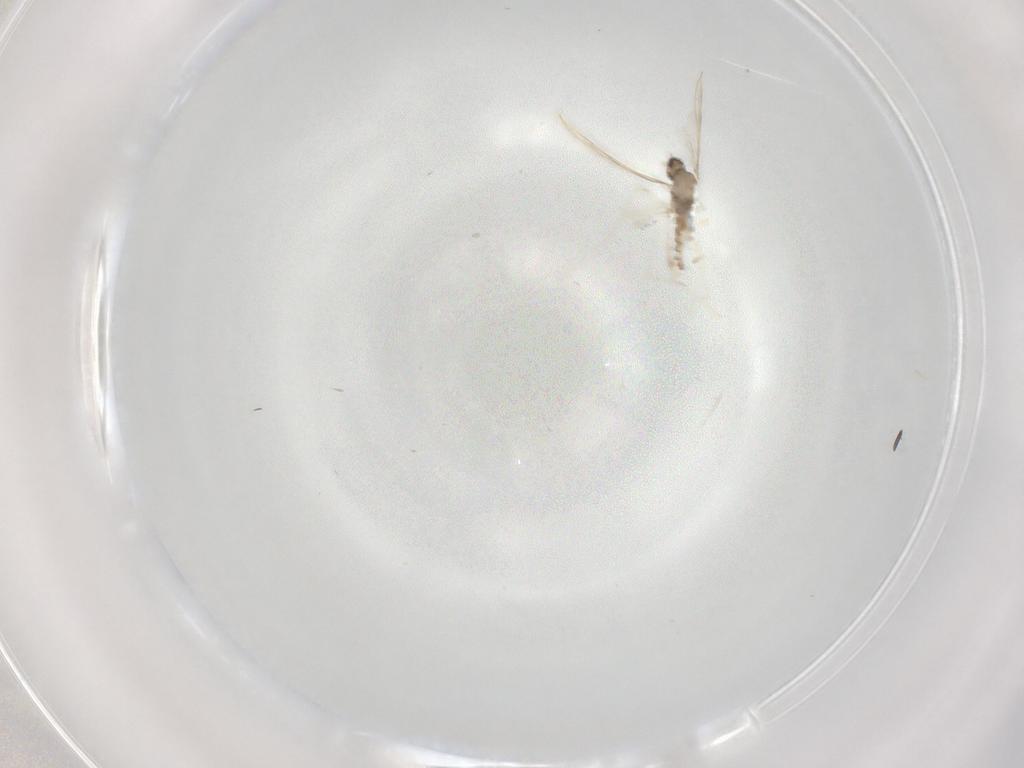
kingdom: Animalia
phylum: Arthropoda
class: Insecta
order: Diptera
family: Cecidomyiidae
